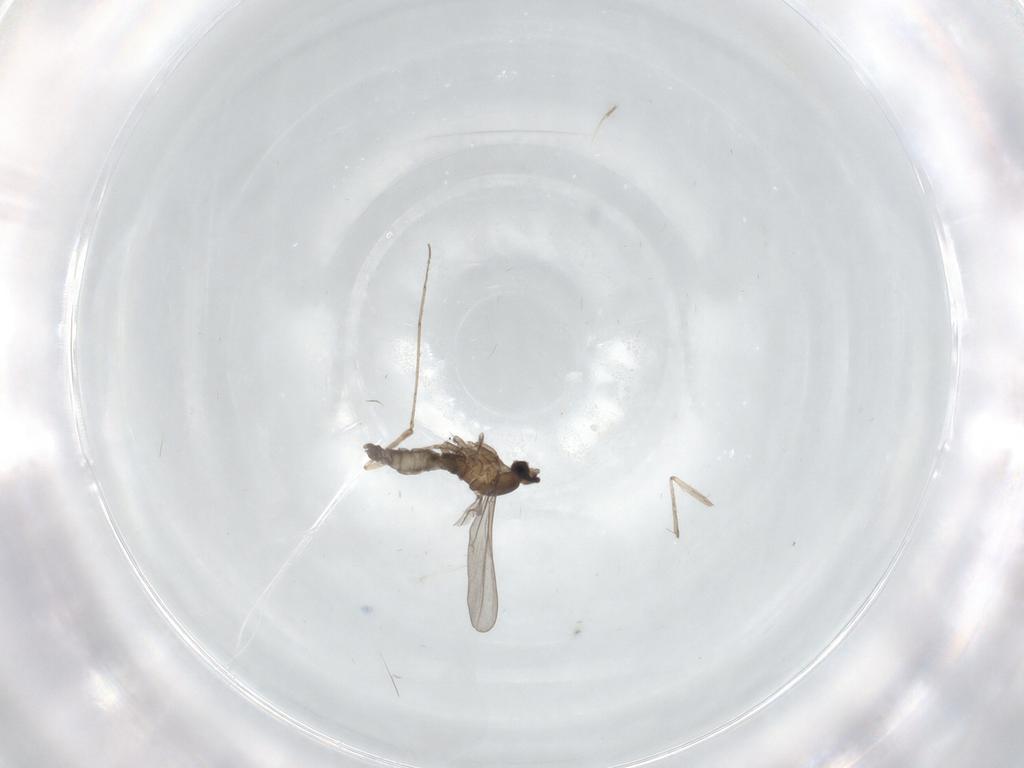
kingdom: Animalia
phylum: Arthropoda
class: Insecta
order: Diptera
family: Cecidomyiidae
